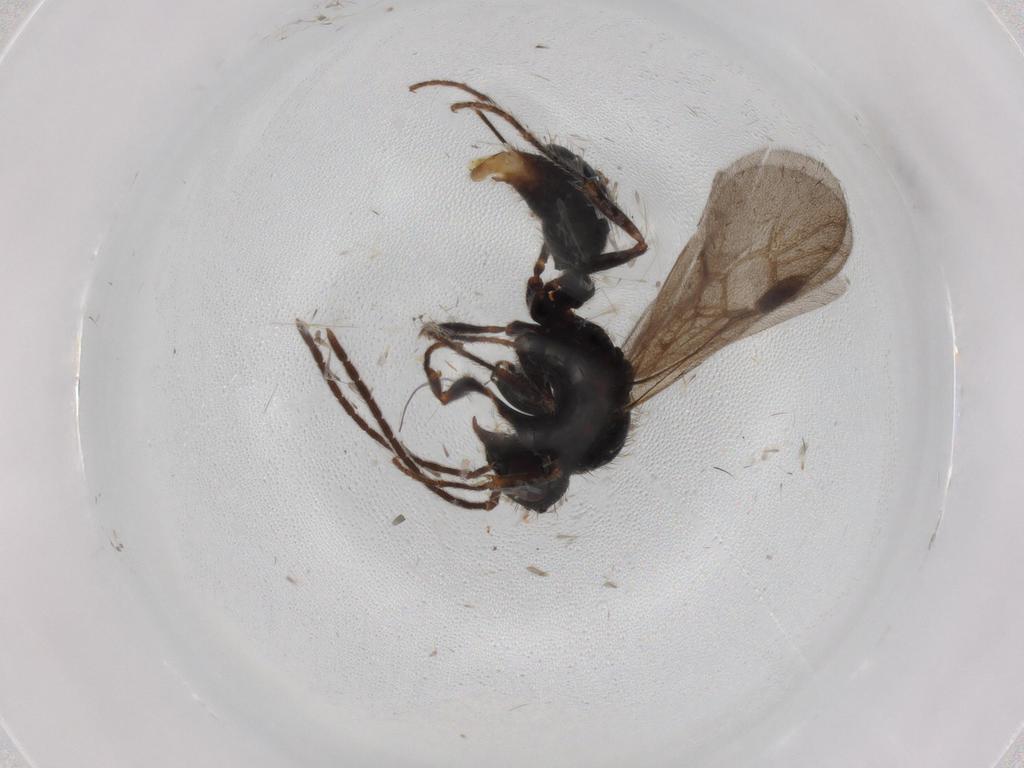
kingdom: Animalia
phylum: Arthropoda
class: Insecta
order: Hymenoptera
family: Formicidae
